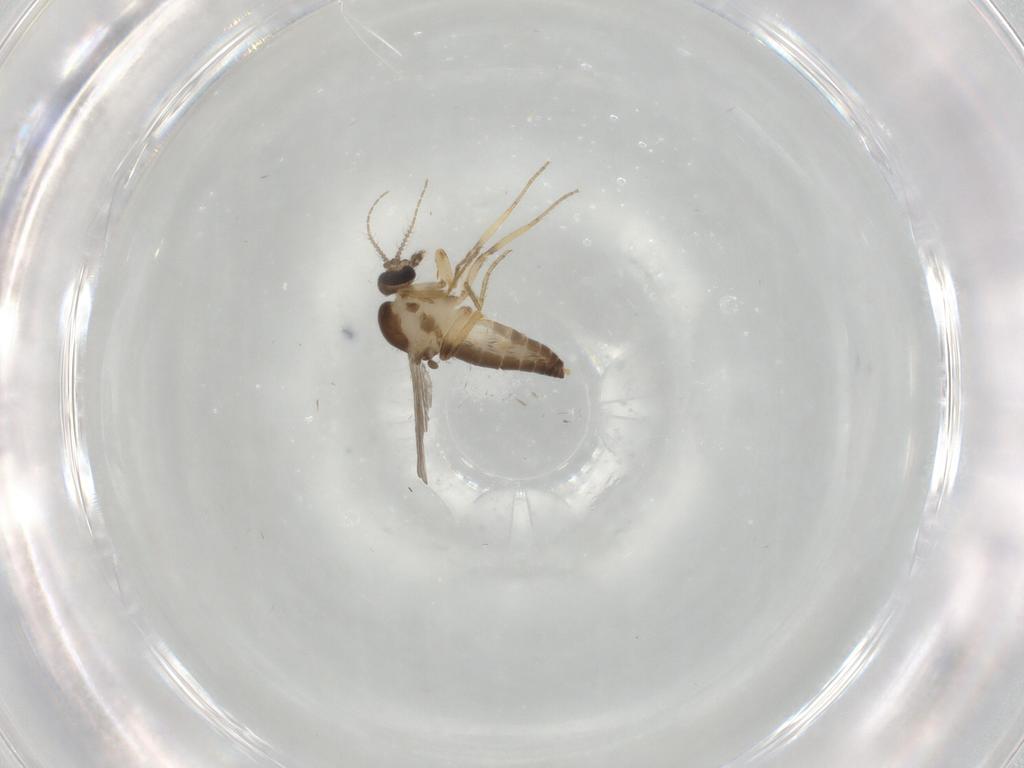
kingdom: Animalia
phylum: Arthropoda
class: Insecta
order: Diptera
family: Ceratopogonidae
